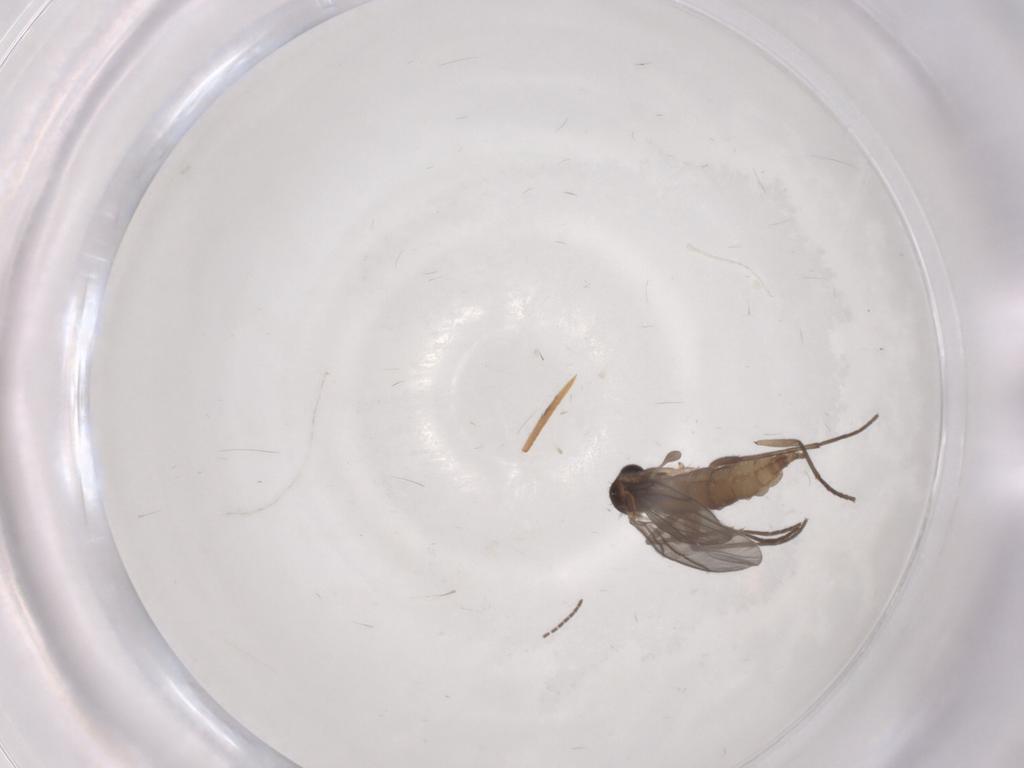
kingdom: Animalia
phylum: Arthropoda
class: Insecta
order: Diptera
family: Sciaridae
